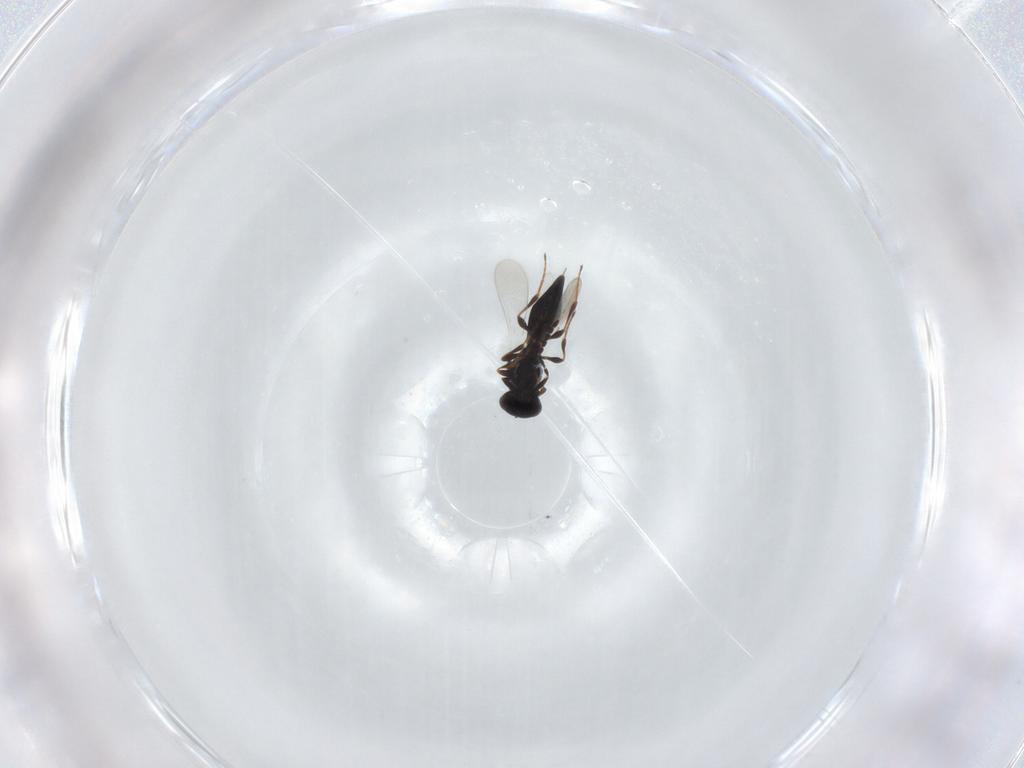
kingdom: Animalia
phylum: Arthropoda
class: Insecta
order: Hymenoptera
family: Platygastridae
